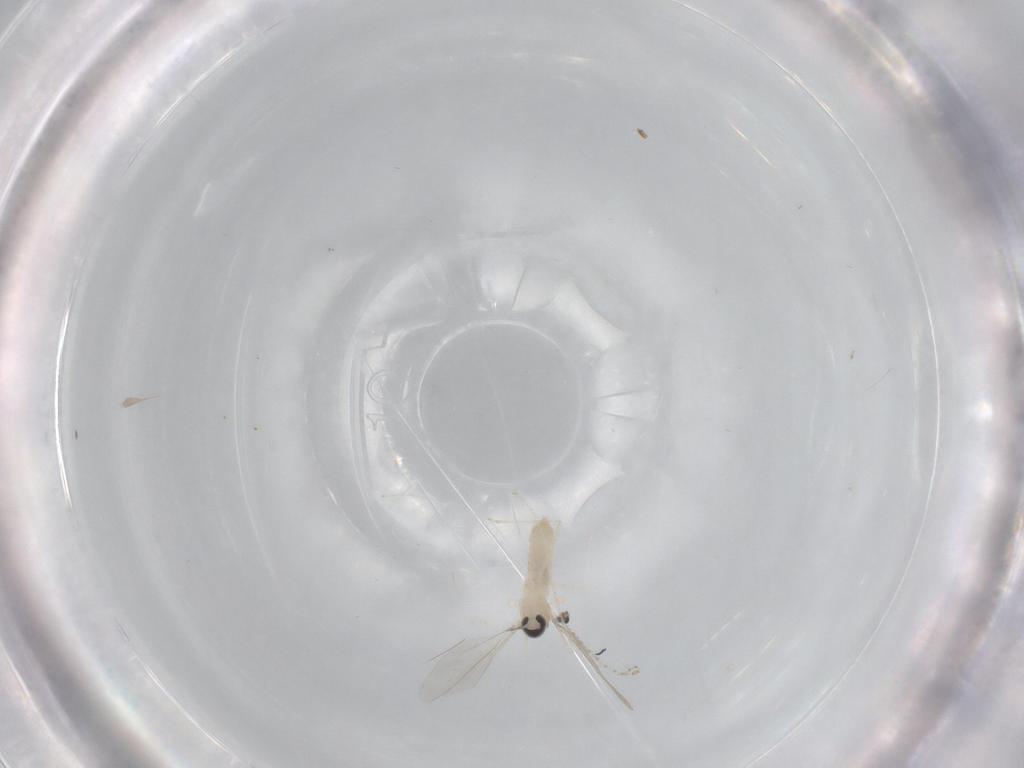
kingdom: Animalia
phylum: Arthropoda
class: Insecta
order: Diptera
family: Cecidomyiidae
